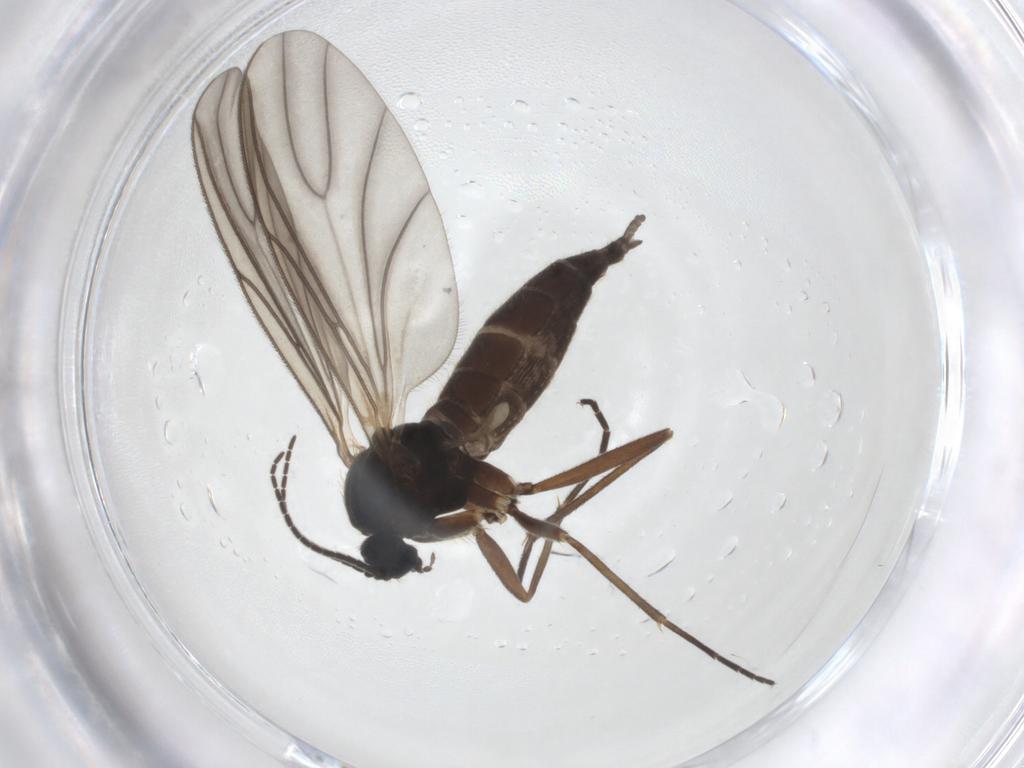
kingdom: Animalia
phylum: Arthropoda
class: Insecta
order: Diptera
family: Sciaridae
